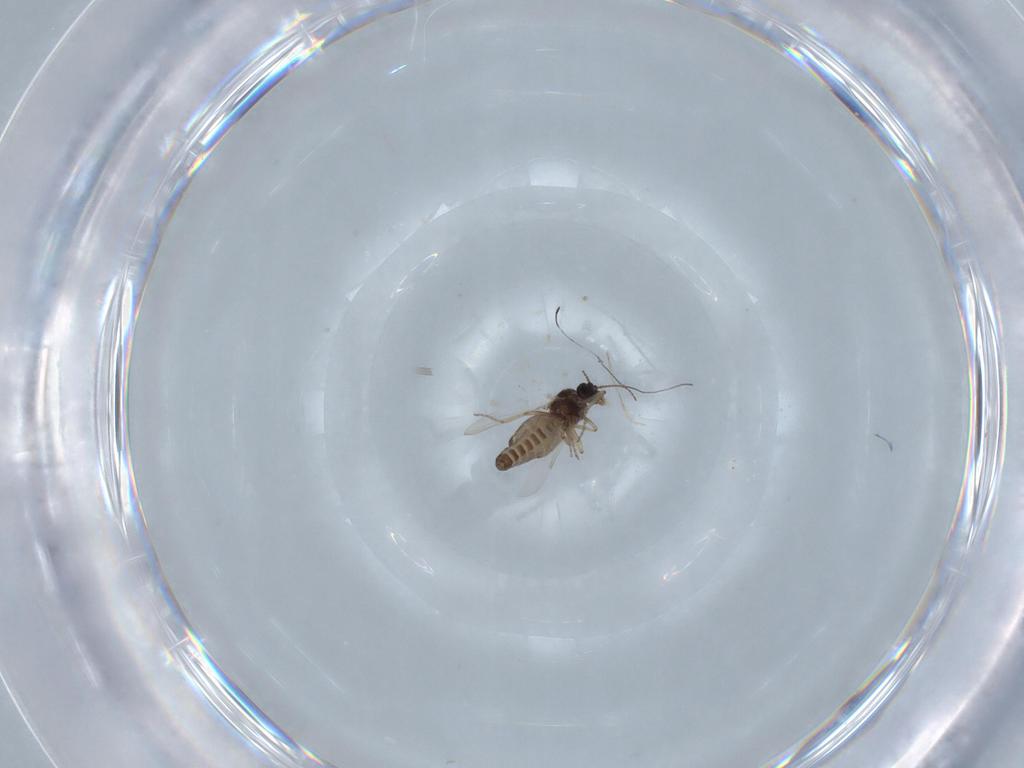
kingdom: Animalia
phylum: Arthropoda
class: Insecta
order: Diptera
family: Ceratopogonidae
